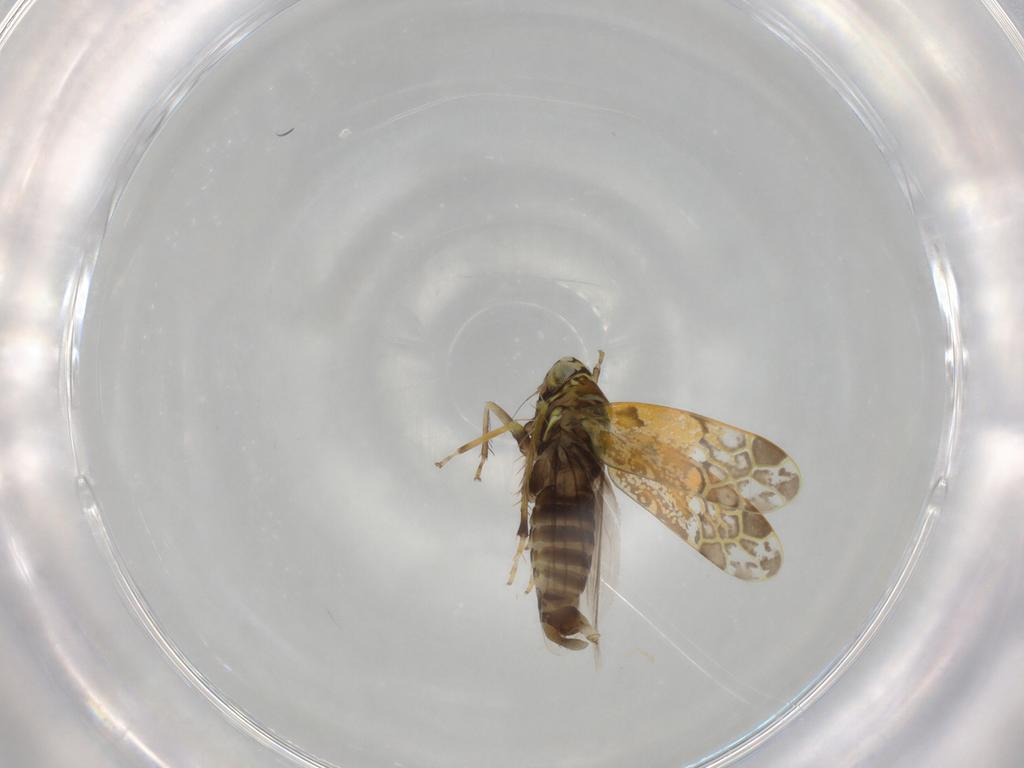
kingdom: Animalia
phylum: Arthropoda
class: Insecta
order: Hemiptera
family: Cicadellidae
